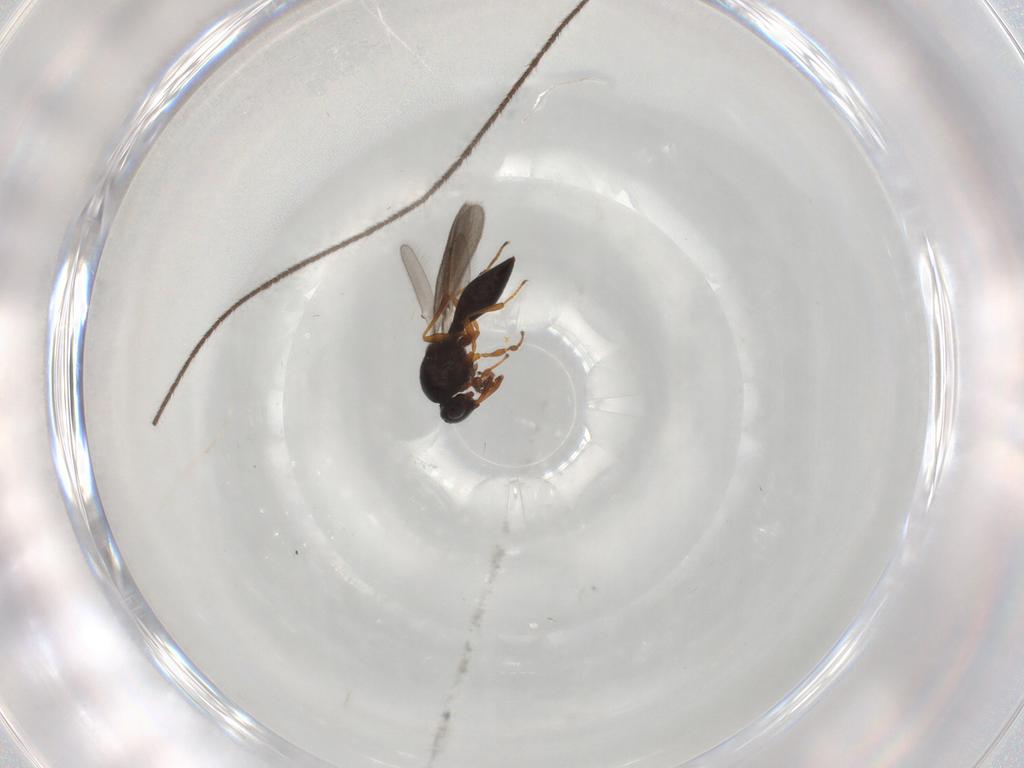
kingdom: Animalia
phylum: Arthropoda
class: Insecta
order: Hymenoptera
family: Platygastridae
